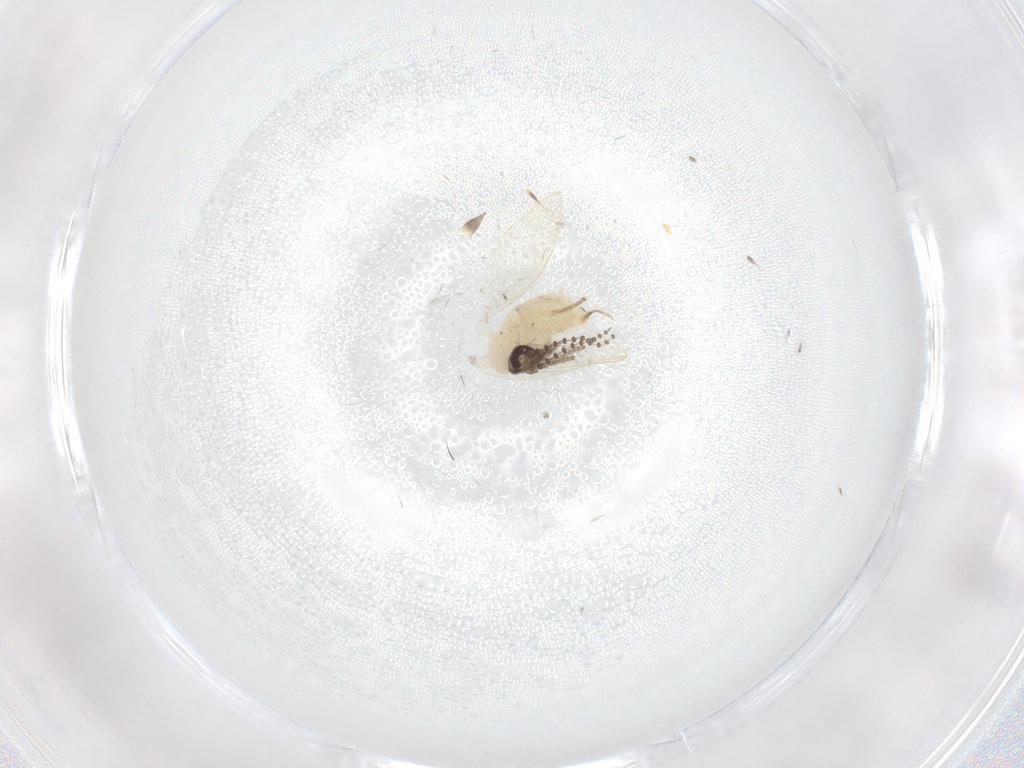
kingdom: Animalia
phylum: Arthropoda
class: Insecta
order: Diptera
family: Psychodidae
